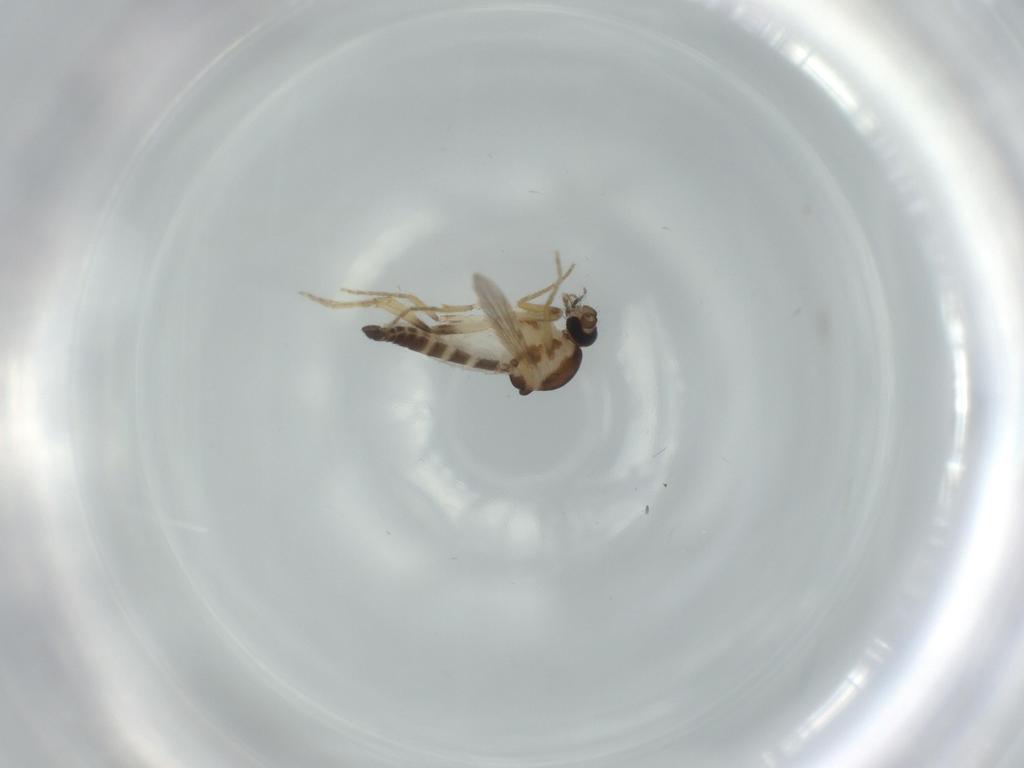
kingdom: Animalia
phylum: Arthropoda
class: Insecta
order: Diptera
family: Ceratopogonidae
